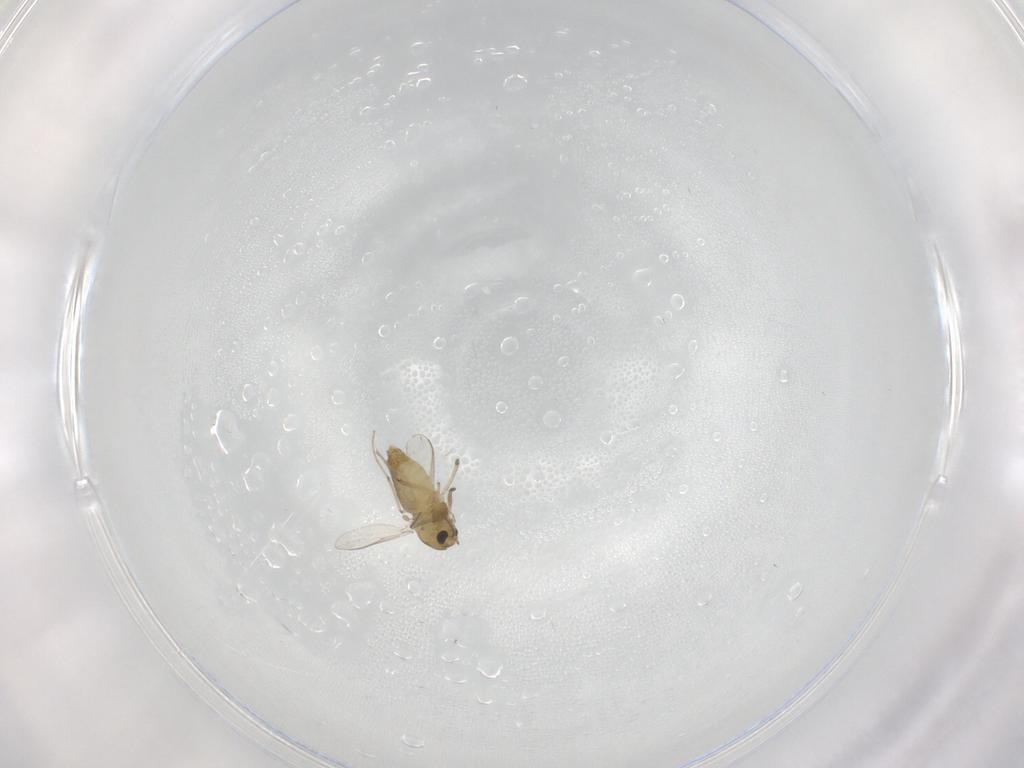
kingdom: Animalia
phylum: Arthropoda
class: Insecta
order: Diptera
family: Chironomidae
